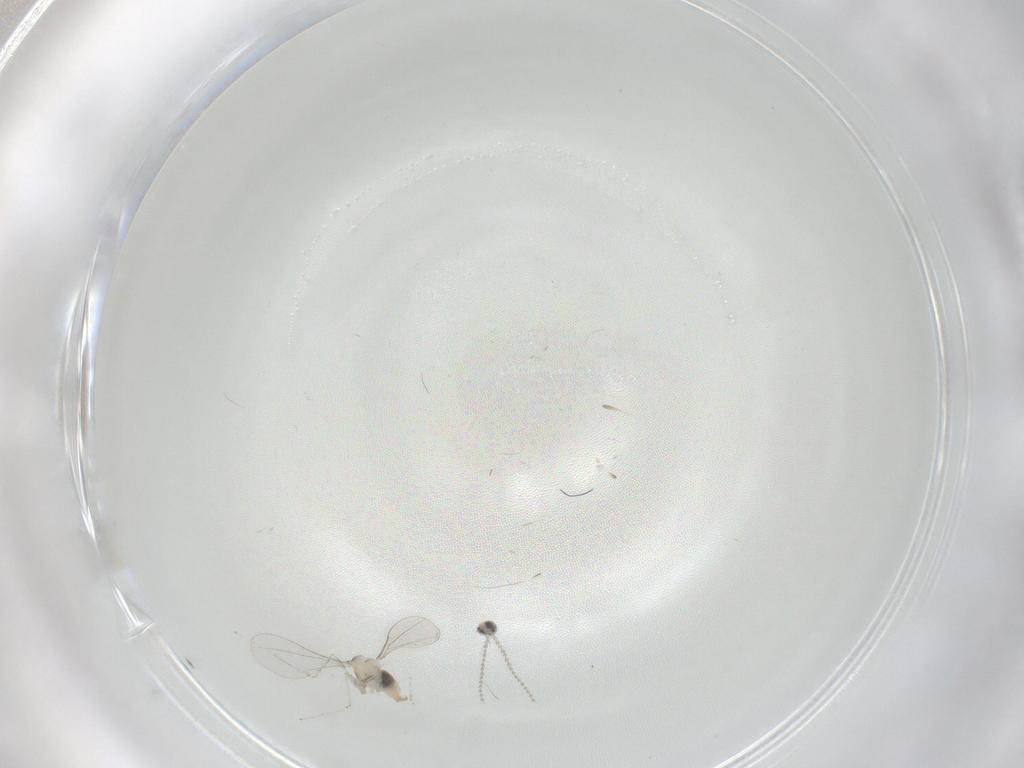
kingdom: Animalia
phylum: Arthropoda
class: Insecta
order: Diptera
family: Cecidomyiidae
